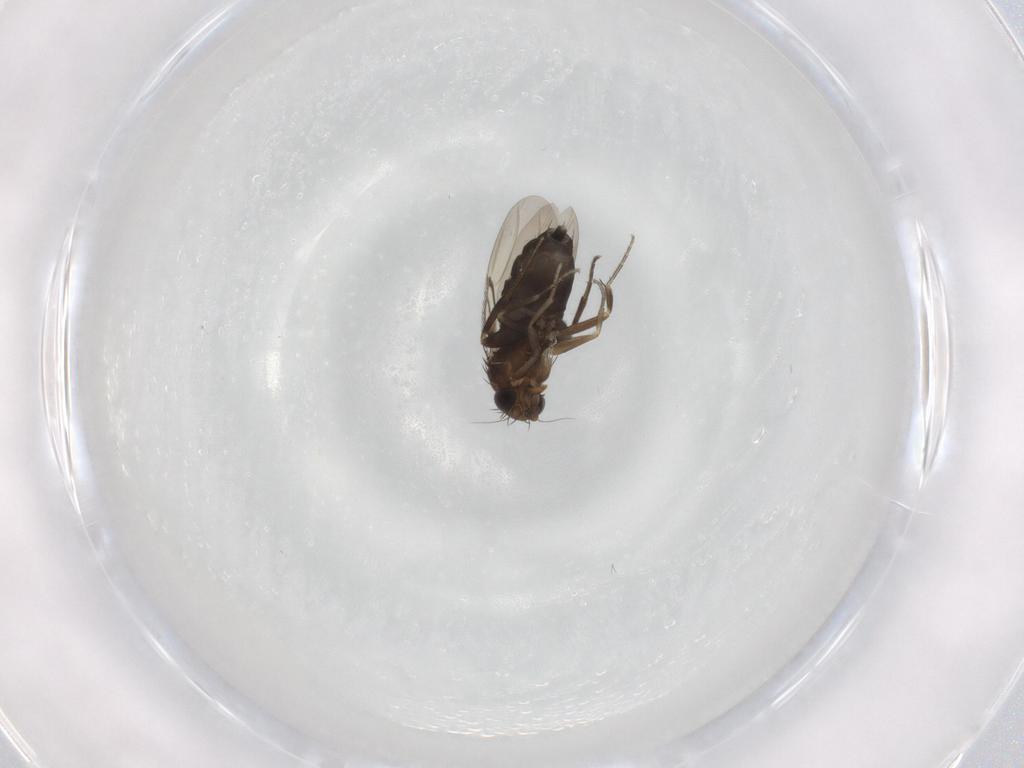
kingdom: Animalia
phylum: Arthropoda
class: Insecta
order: Diptera
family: Phoridae
